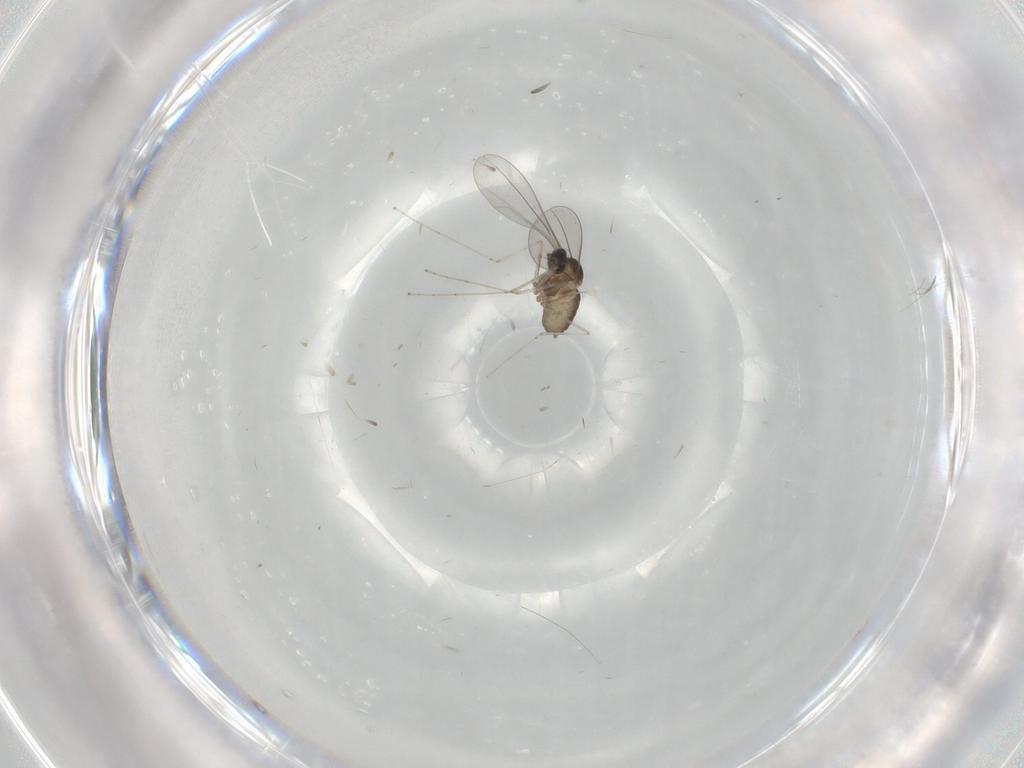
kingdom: Animalia
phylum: Arthropoda
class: Insecta
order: Diptera
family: Cecidomyiidae
